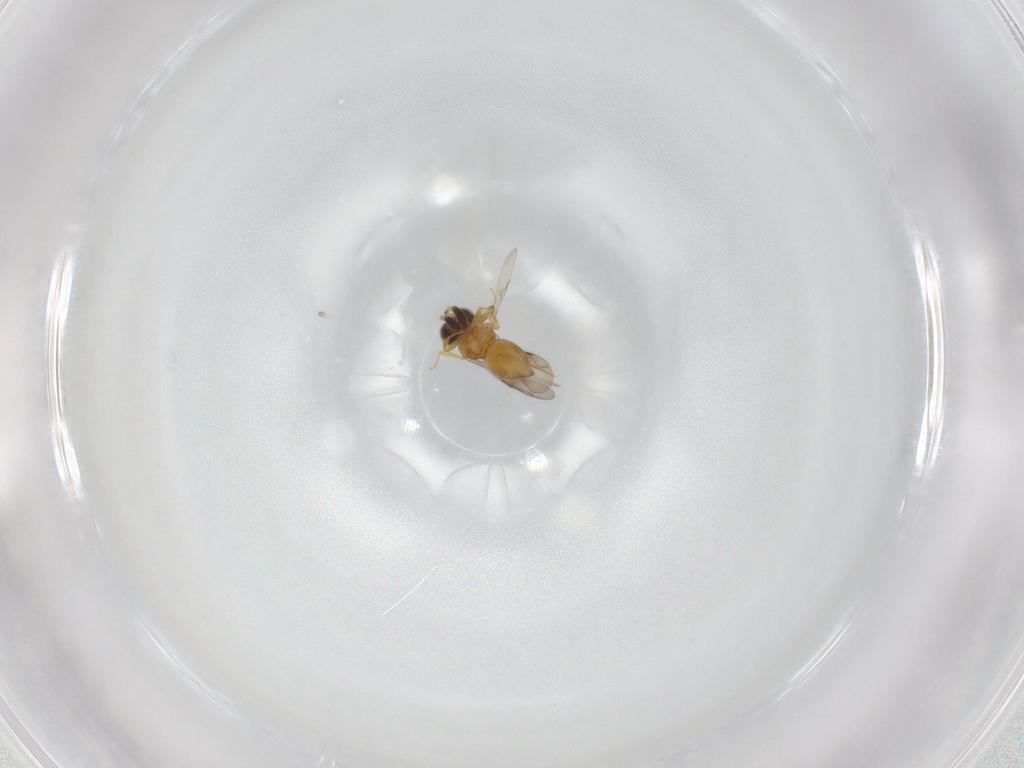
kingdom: Animalia
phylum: Arthropoda
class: Insecta
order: Hymenoptera
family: Ceraphronidae
